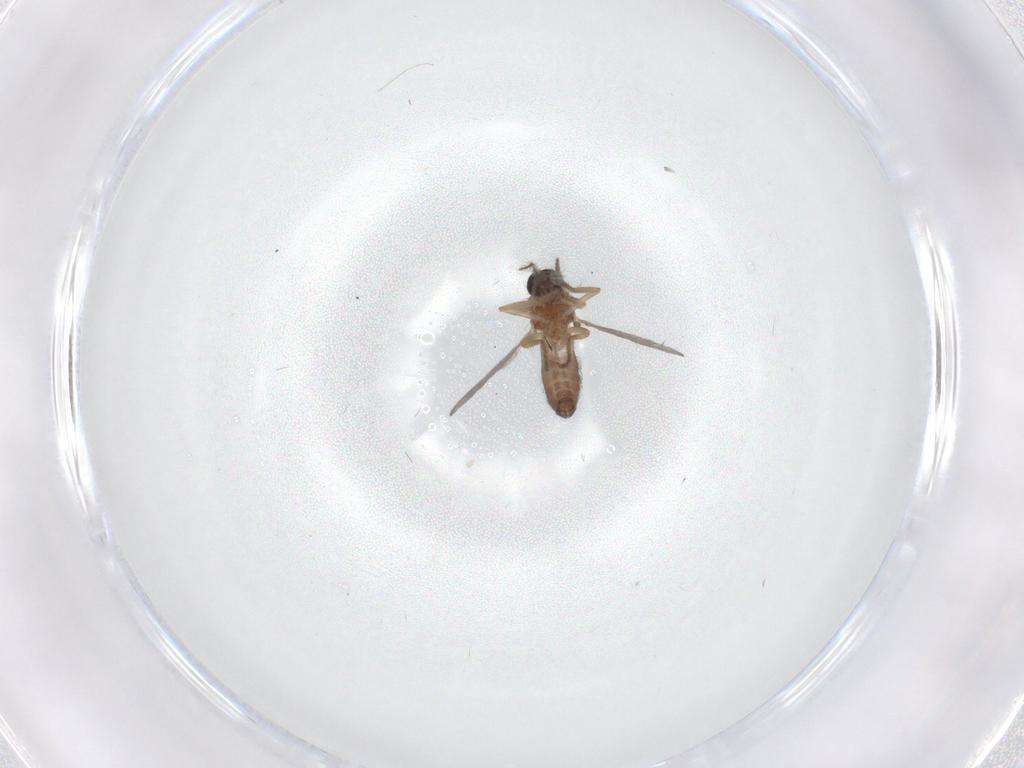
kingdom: Animalia
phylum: Arthropoda
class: Insecta
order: Diptera
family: Ceratopogonidae
